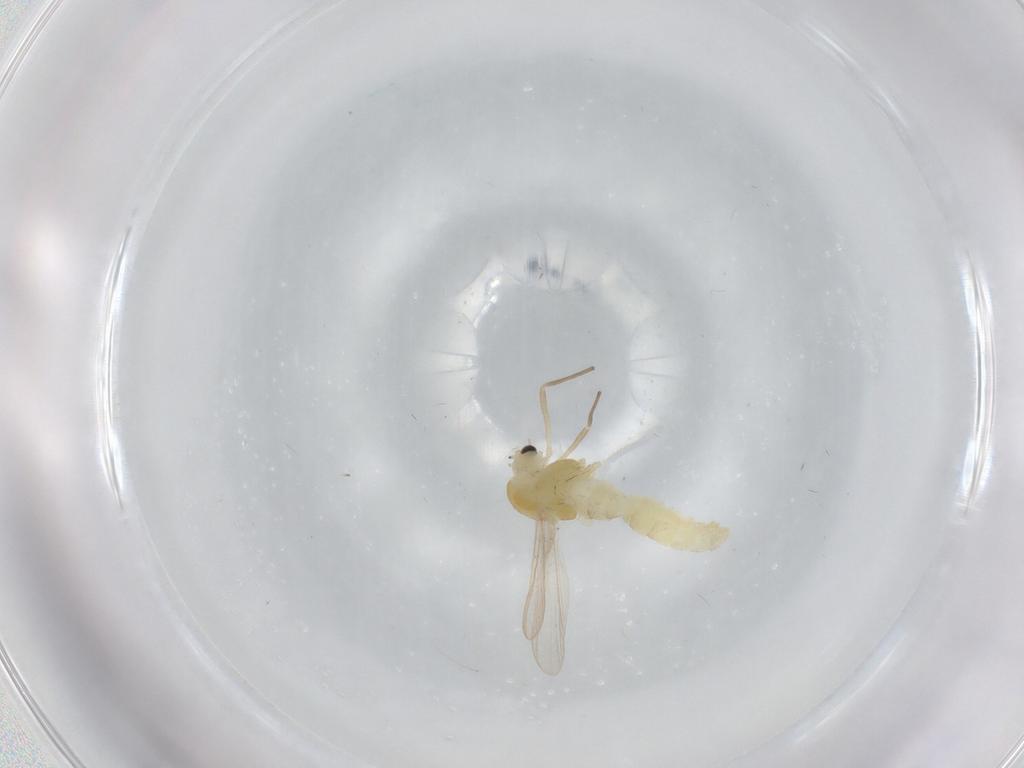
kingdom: Animalia
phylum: Arthropoda
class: Insecta
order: Diptera
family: Chironomidae
